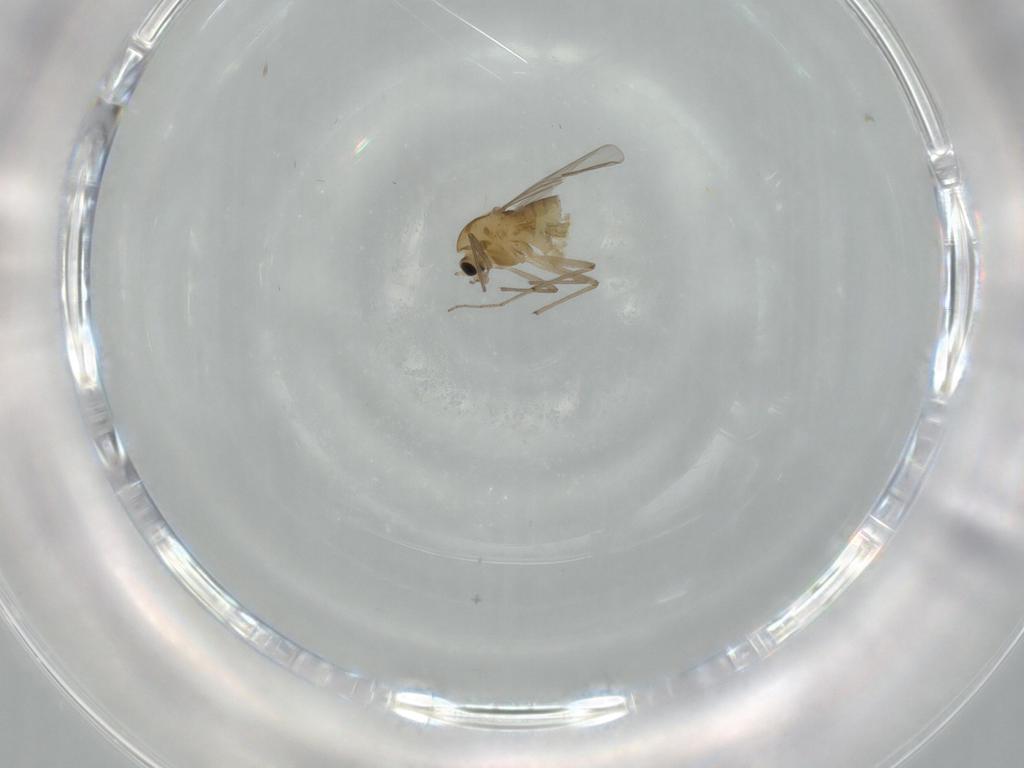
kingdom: Animalia
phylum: Arthropoda
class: Insecta
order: Diptera
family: Chironomidae
